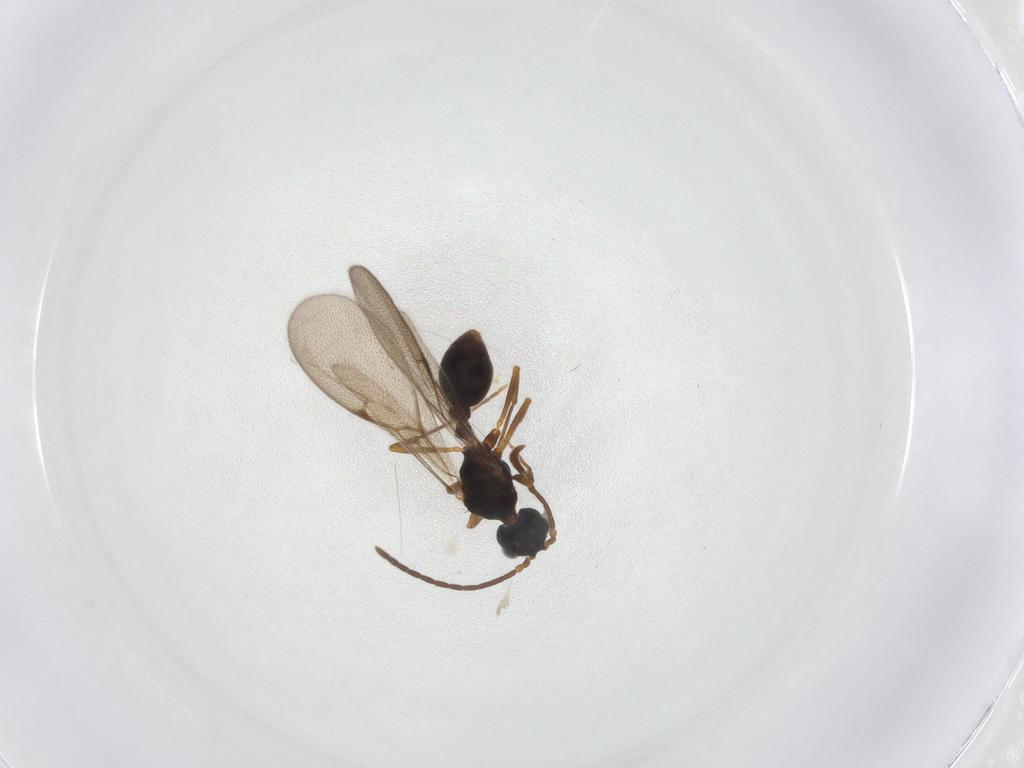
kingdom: Animalia
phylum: Arthropoda
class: Insecta
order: Hymenoptera
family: Formicidae
